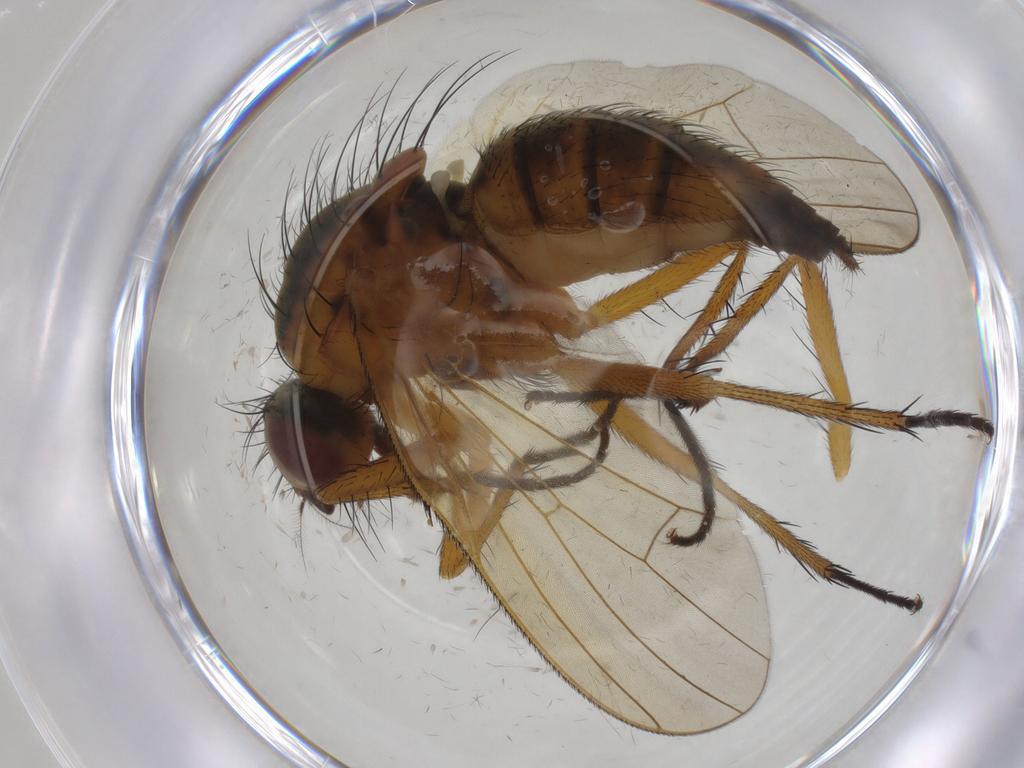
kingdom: Animalia
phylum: Arthropoda
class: Insecta
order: Diptera
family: Anthomyiidae
